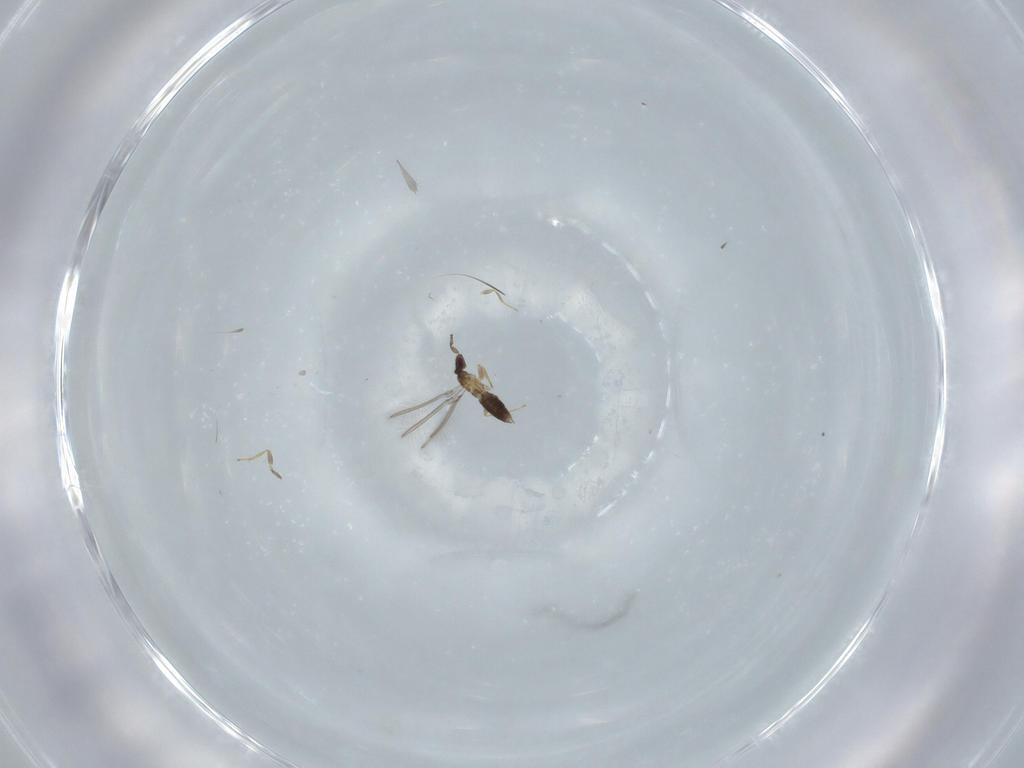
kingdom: Animalia
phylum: Arthropoda
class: Insecta
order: Hymenoptera
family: Mymaridae
